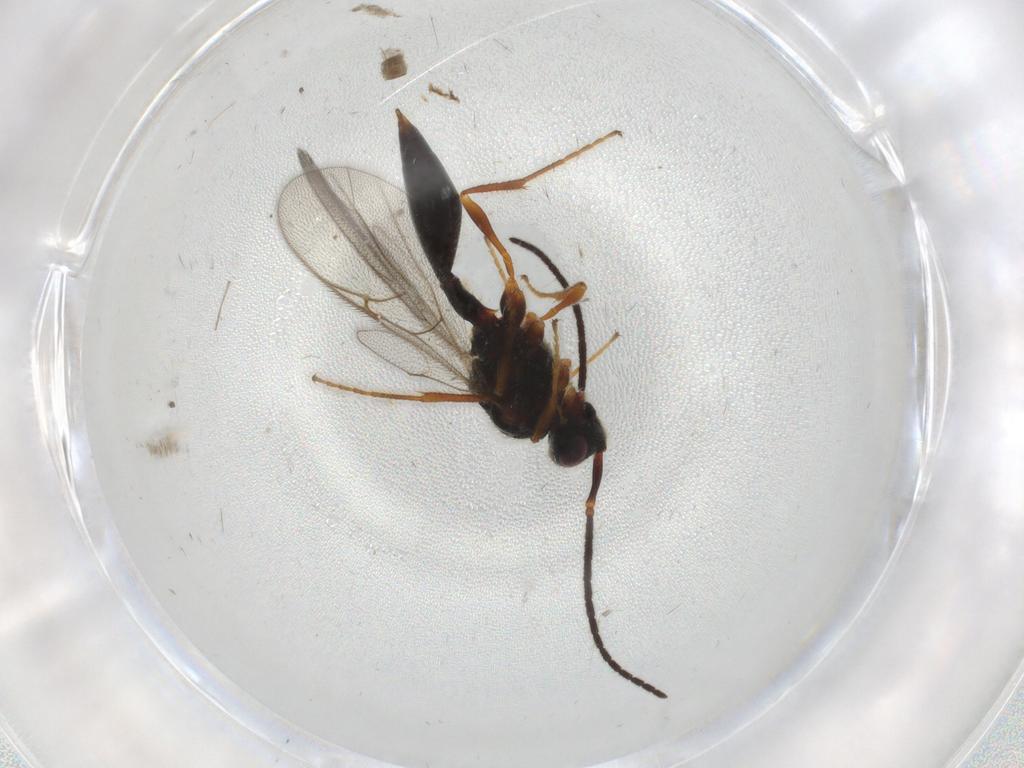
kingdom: Animalia
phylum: Arthropoda
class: Insecta
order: Hymenoptera
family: Diapriidae
